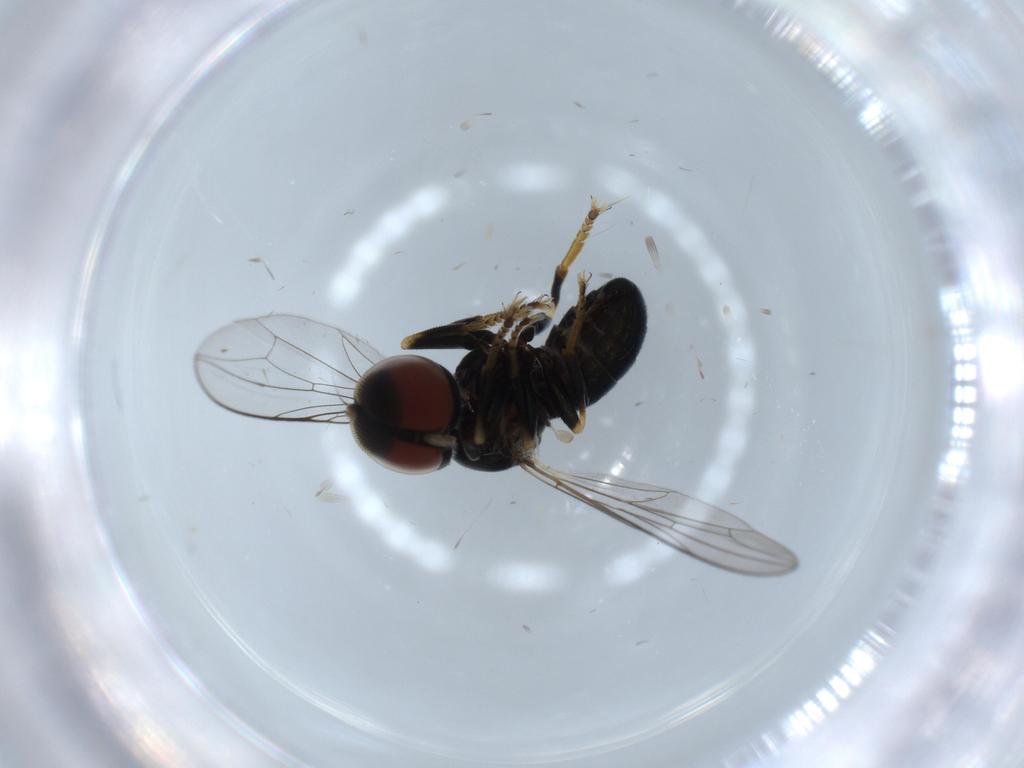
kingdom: Animalia
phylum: Arthropoda
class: Insecta
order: Diptera
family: Pipunculidae
